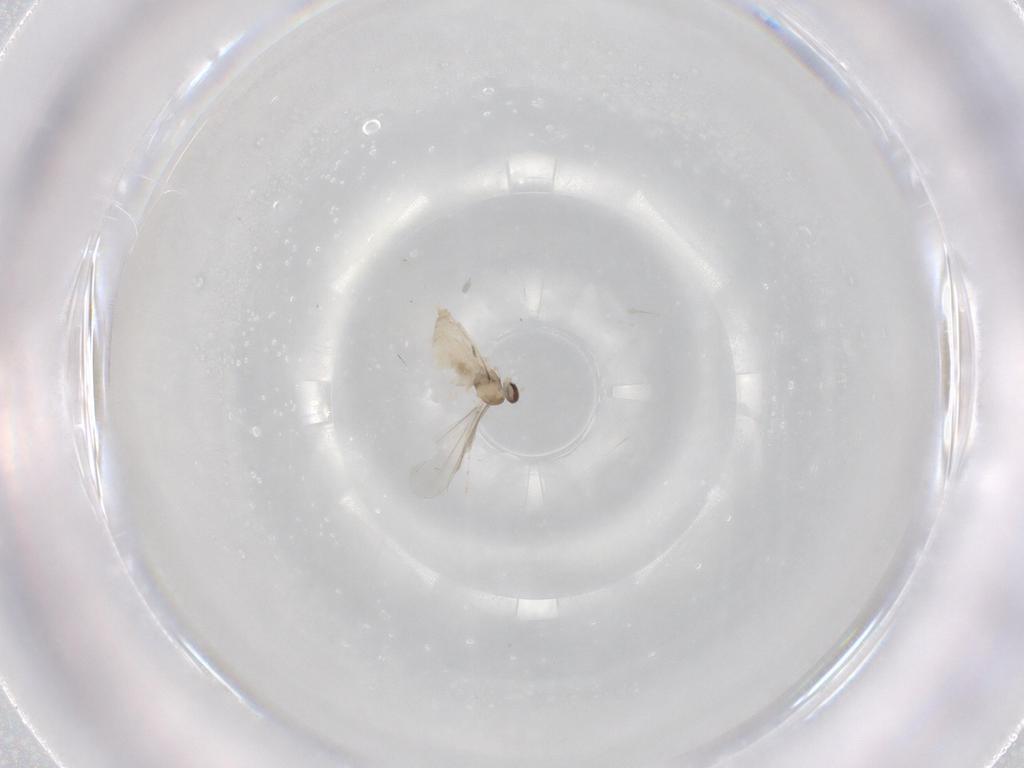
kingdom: Animalia
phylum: Arthropoda
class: Insecta
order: Diptera
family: Cecidomyiidae
